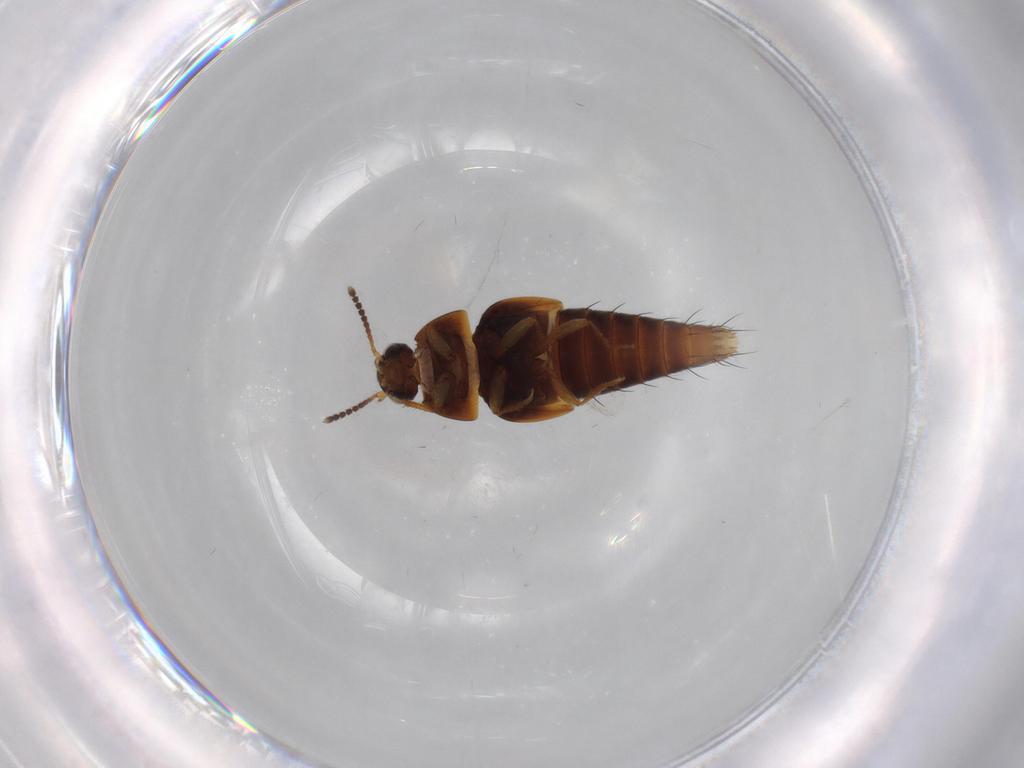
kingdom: Animalia
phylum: Arthropoda
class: Insecta
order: Coleoptera
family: Staphylinidae
